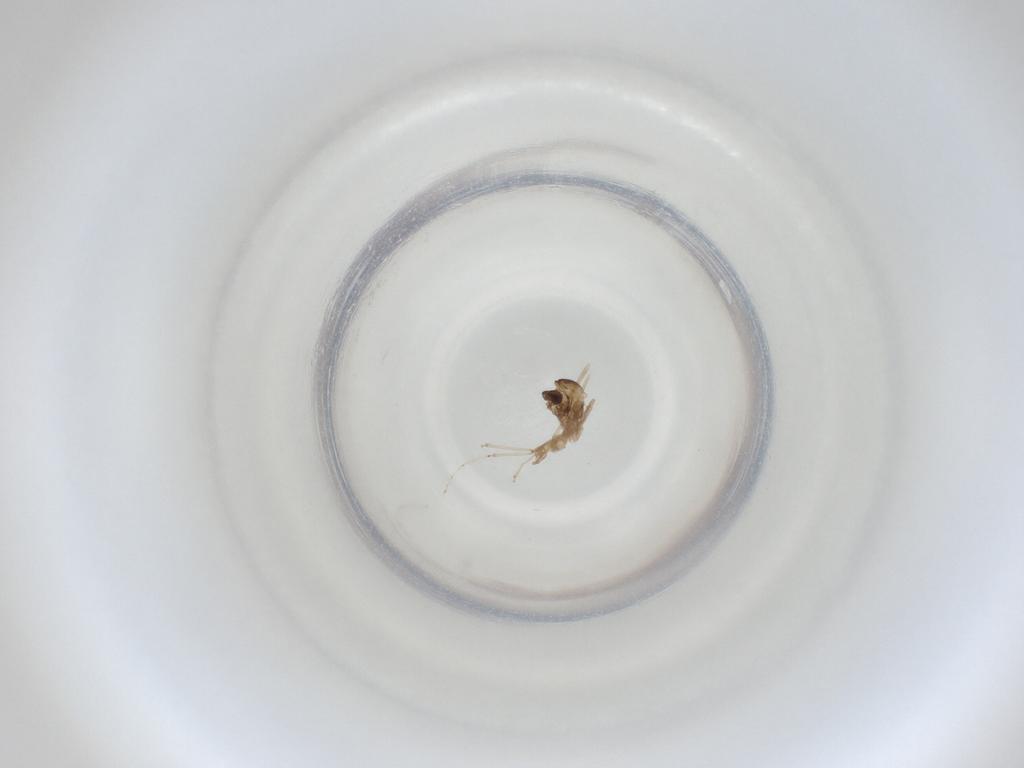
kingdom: Animalia
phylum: Arthropoda
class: Insecta
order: Diptera
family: Cecidomyiidae
